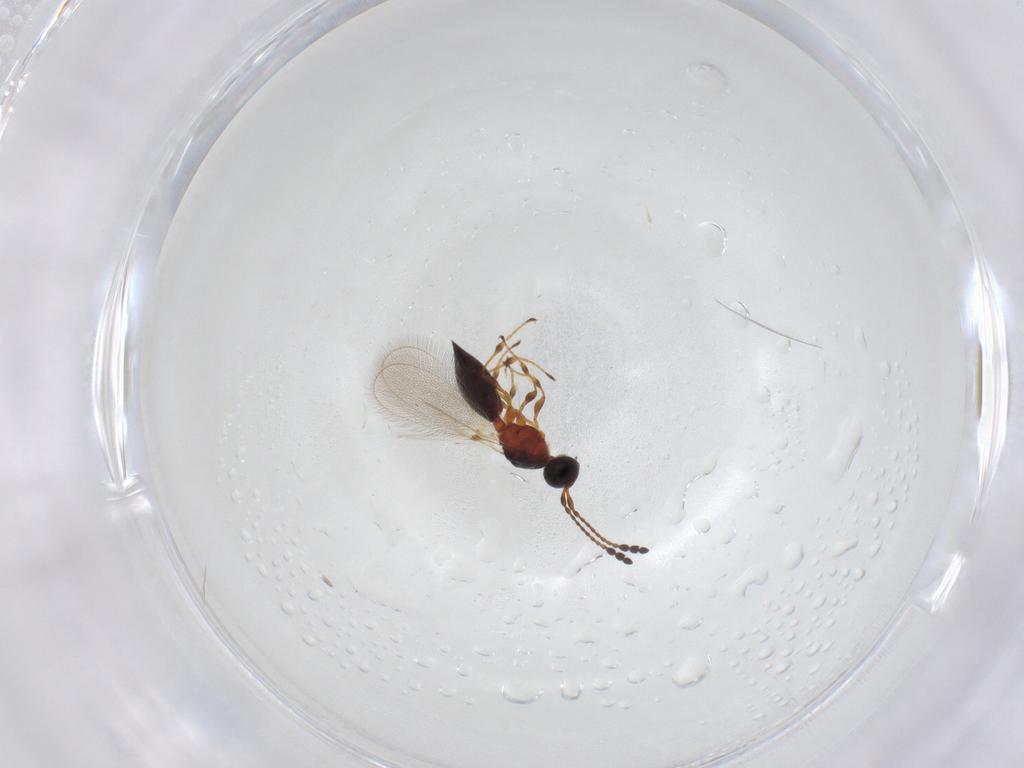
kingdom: Animalia
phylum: Arthropoda
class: Insecta
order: Hymenoptera
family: Diapriidae
